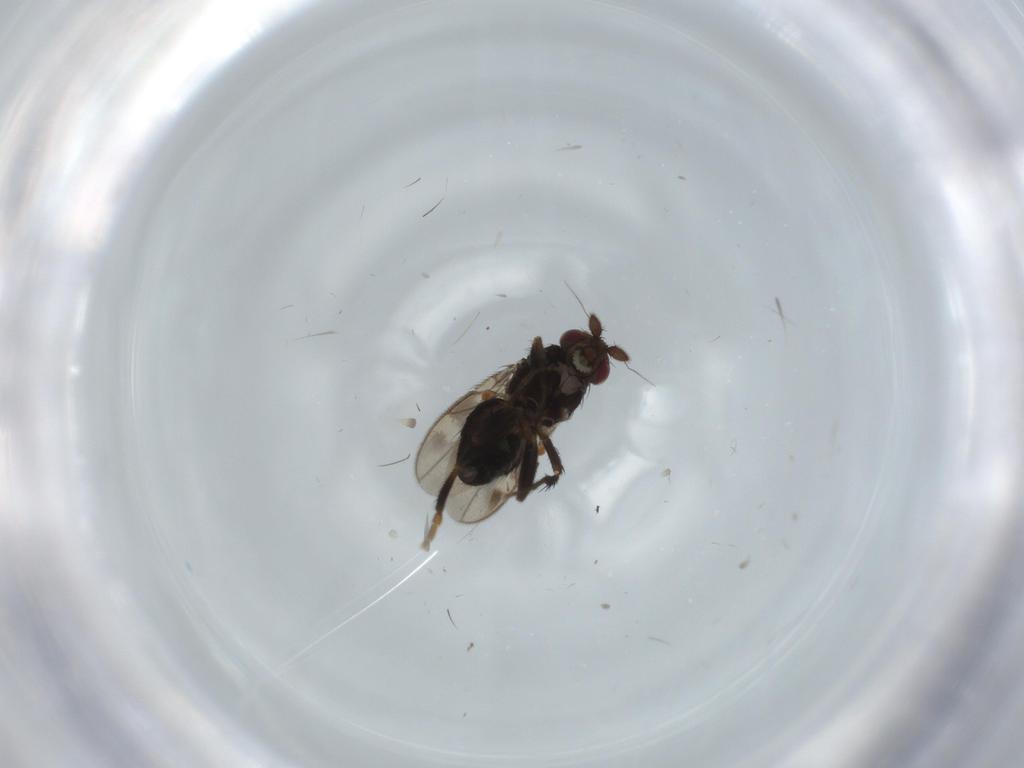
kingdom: Animalia
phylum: Arthropoda
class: Insecta
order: Diptera
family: Ceratopogonidae
